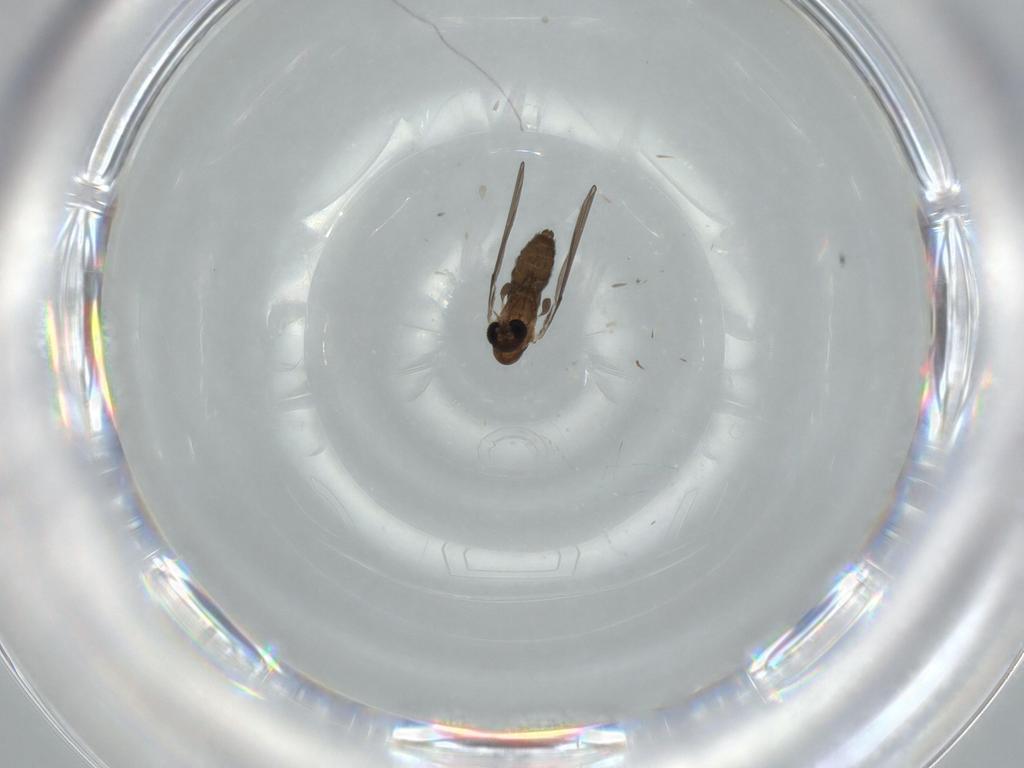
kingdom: Animalia
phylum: Arthropoda
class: Insecta
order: Diptera
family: Psychodidae
